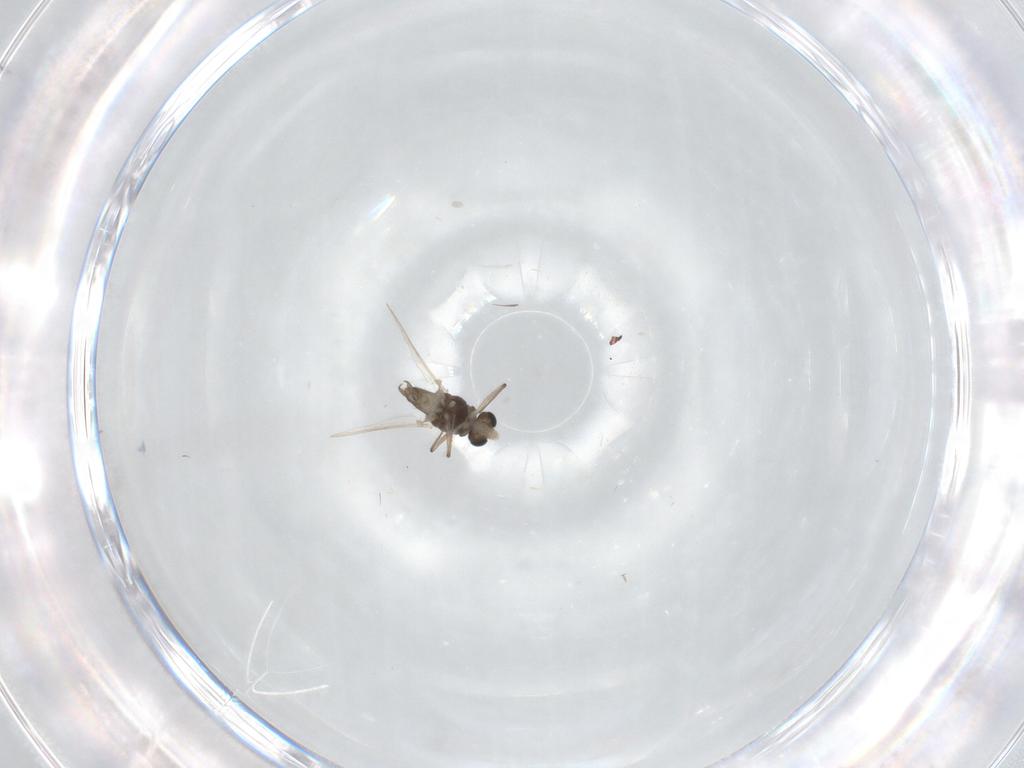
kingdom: Animalia
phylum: Arthropoda
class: Insecta
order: Diptera
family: Chironomidae
